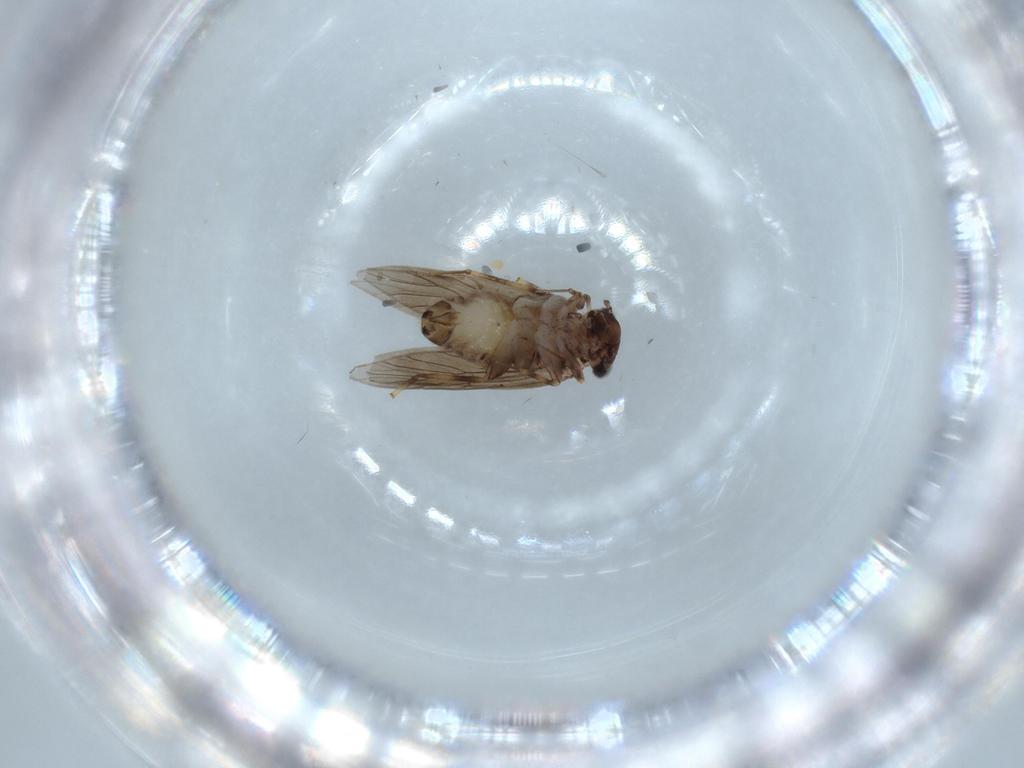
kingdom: Animalia
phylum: Arthropoda
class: Insecta
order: Psocodea
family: Lepidopsocidae
